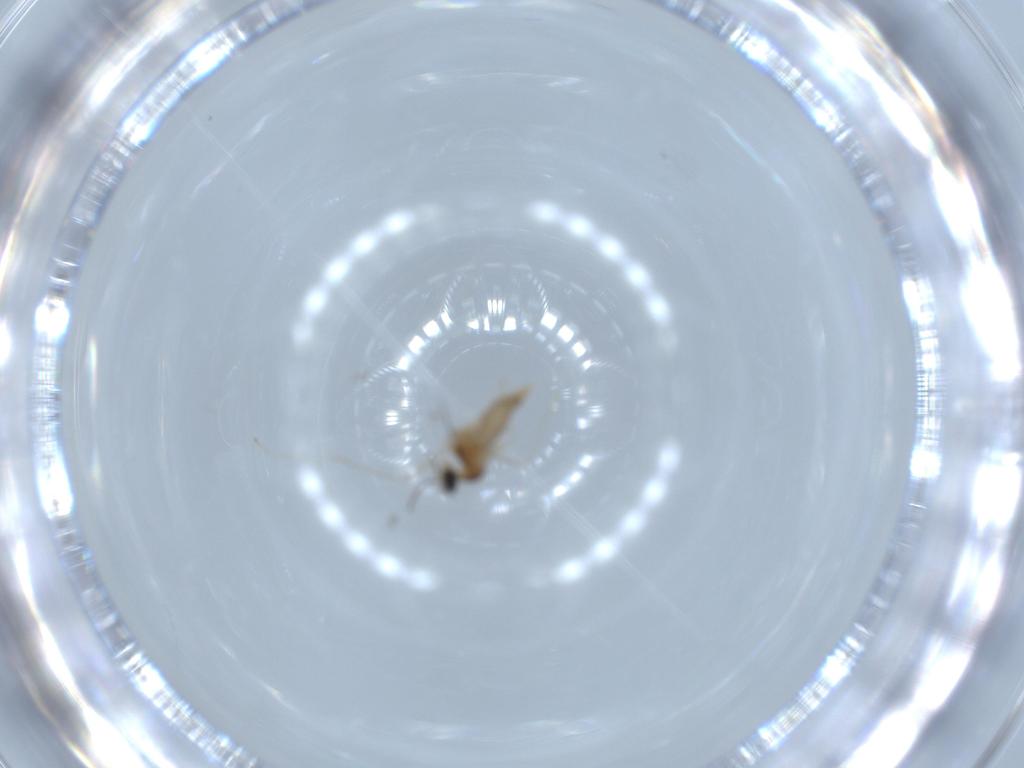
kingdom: Animalia
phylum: Arthropoda
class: Insecta
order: Diptera
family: Cecidomyiidae
